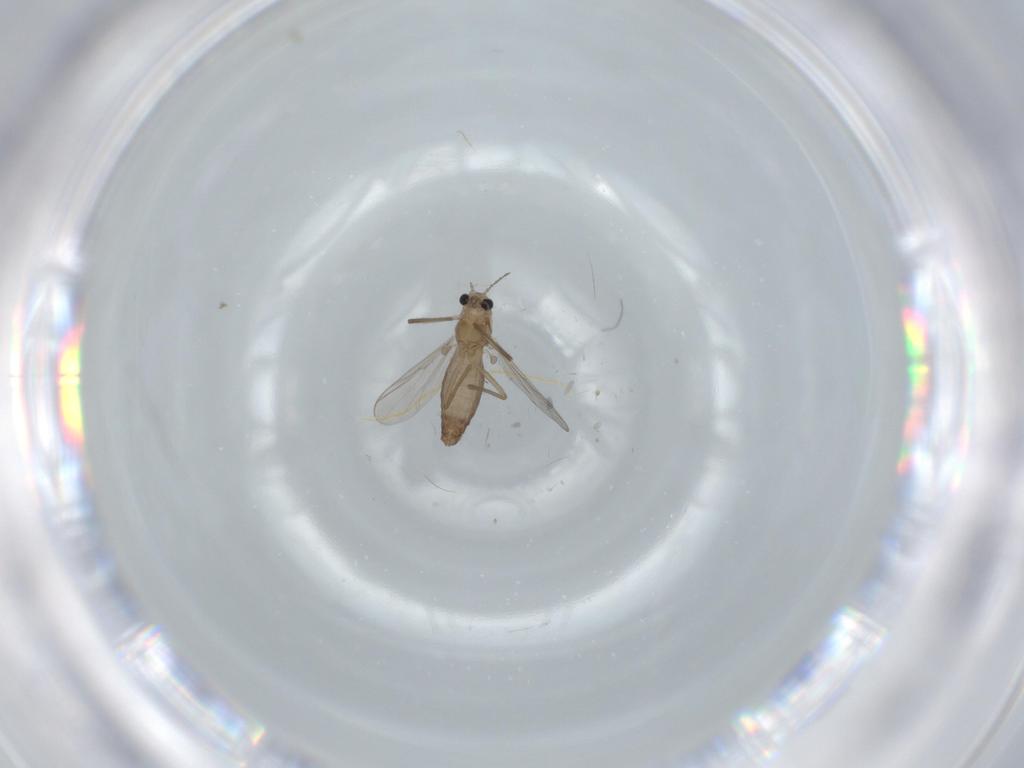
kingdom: Animalia
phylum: Arthropoda
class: Insecta
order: Diptera
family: Chironomidae
